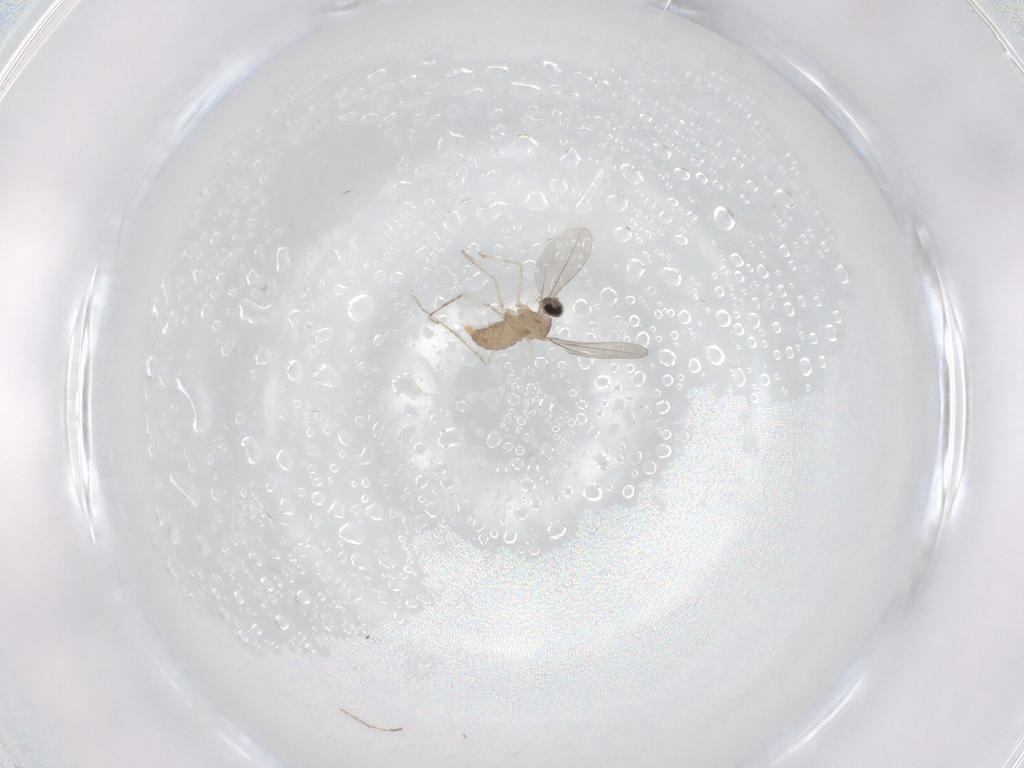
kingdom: Animalia
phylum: Arthropoda
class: Insecta
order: Diptera
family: Cecidomyiidae
